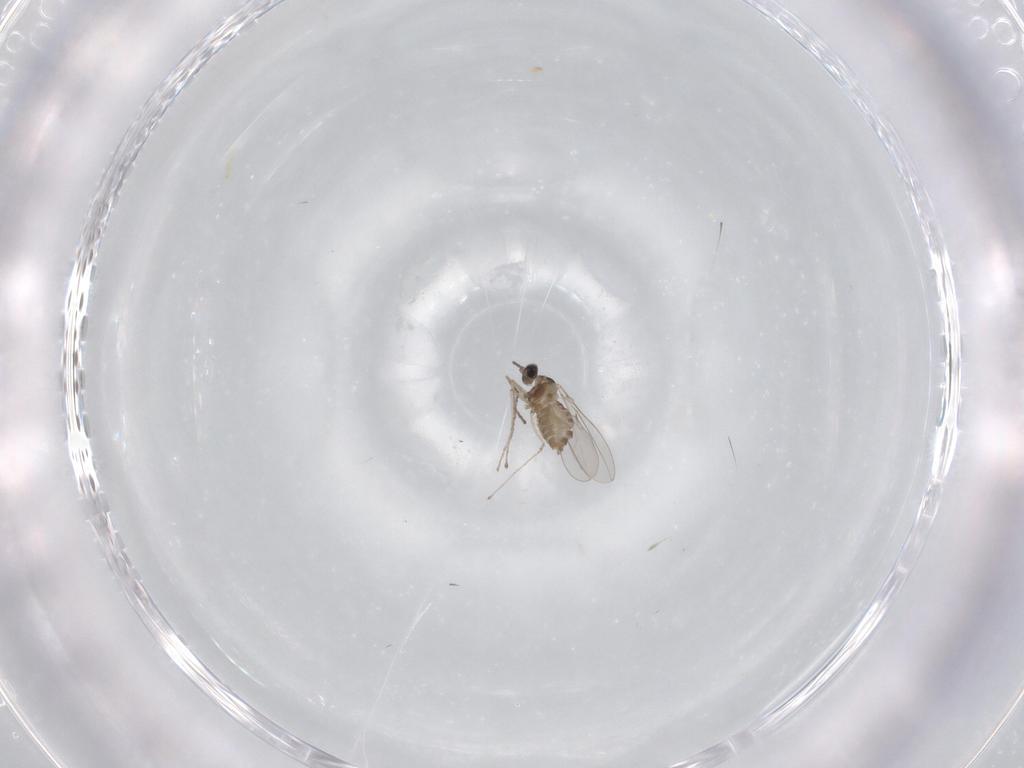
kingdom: Animalia
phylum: Arthropoda
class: Insecta
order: Diptera
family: Cecidomyiidae
